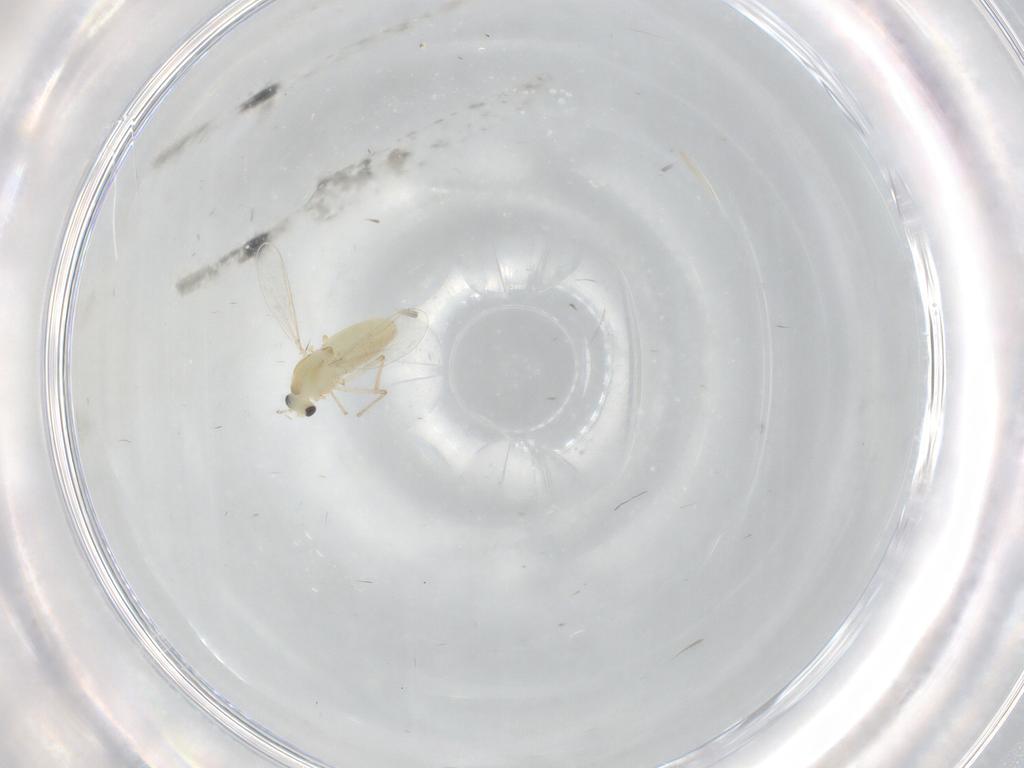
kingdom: Animalia
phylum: Arthropoda
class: Insecta
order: Diptera
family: Chironomidae
